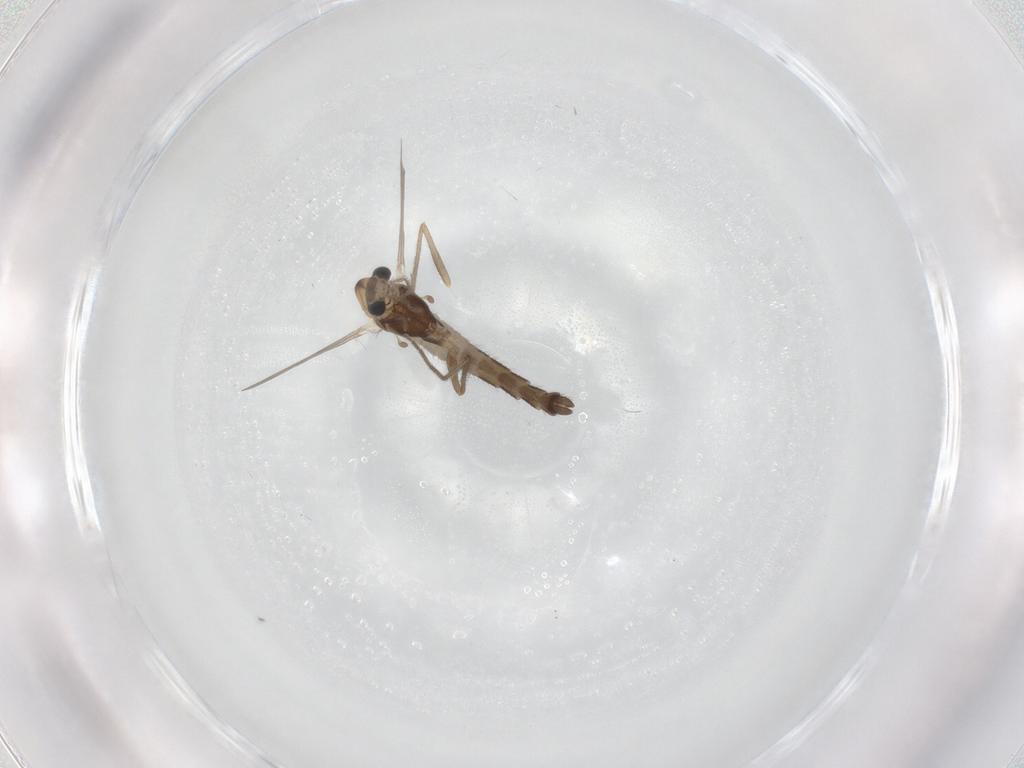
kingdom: Animalia
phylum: Arthropoda
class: Insecta
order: Diptera
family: Chironomidae
